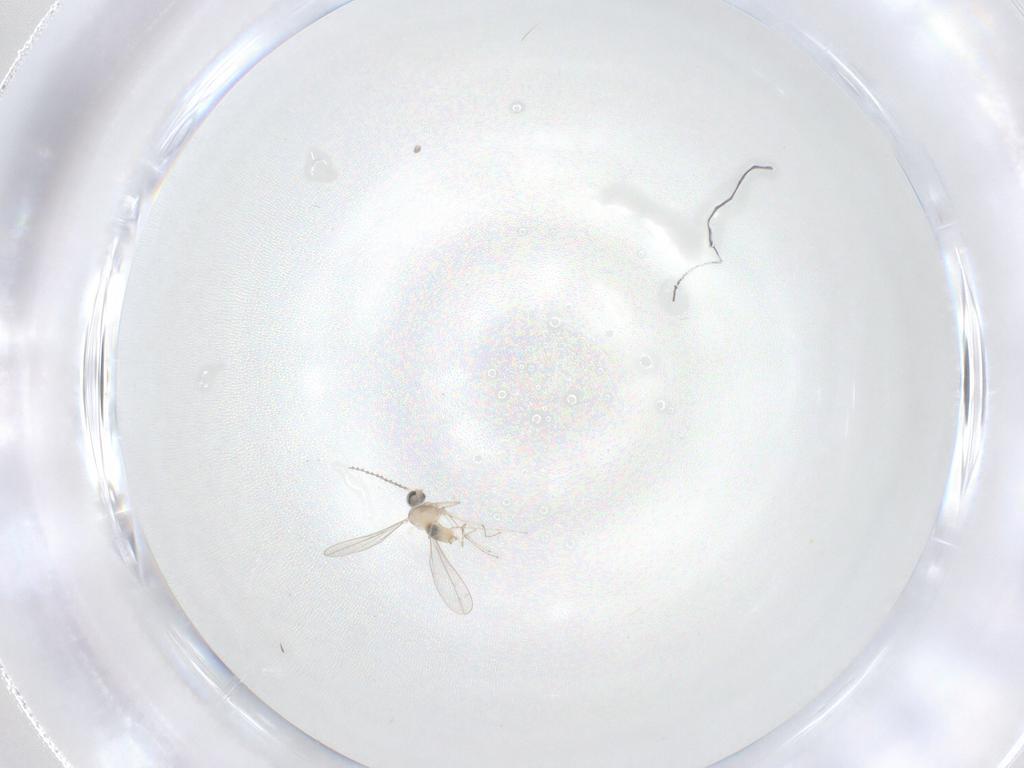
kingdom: Animalia
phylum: Arthropoda
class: Insecta
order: Diptera
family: Cecidomyiidae
